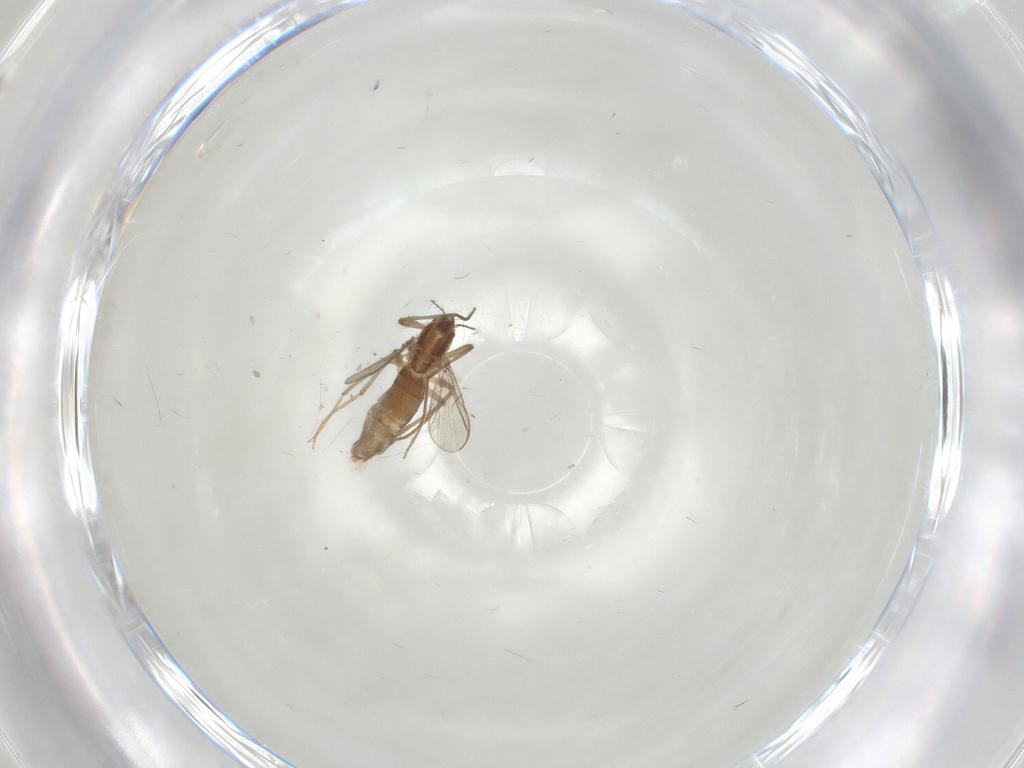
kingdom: Animalia
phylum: Arthropoda
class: Insecta
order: Diptera
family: Chironomidae
